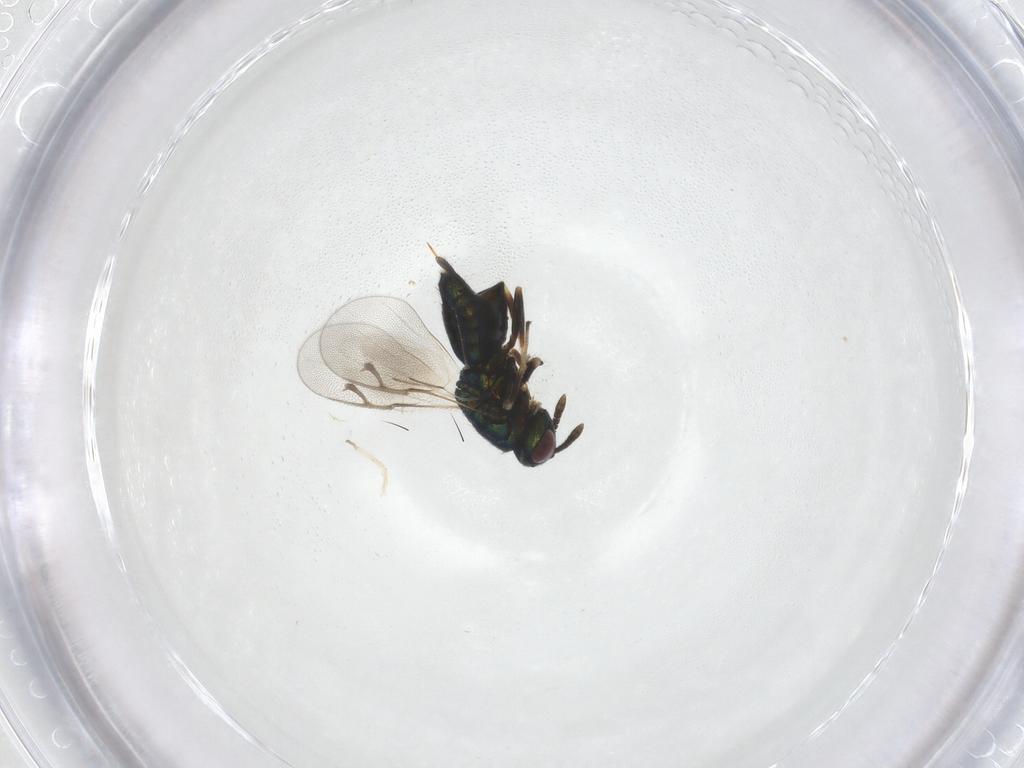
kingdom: Animalia
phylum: Arthropoda
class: Insecta
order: Hymenoptera
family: Pteromalidae
